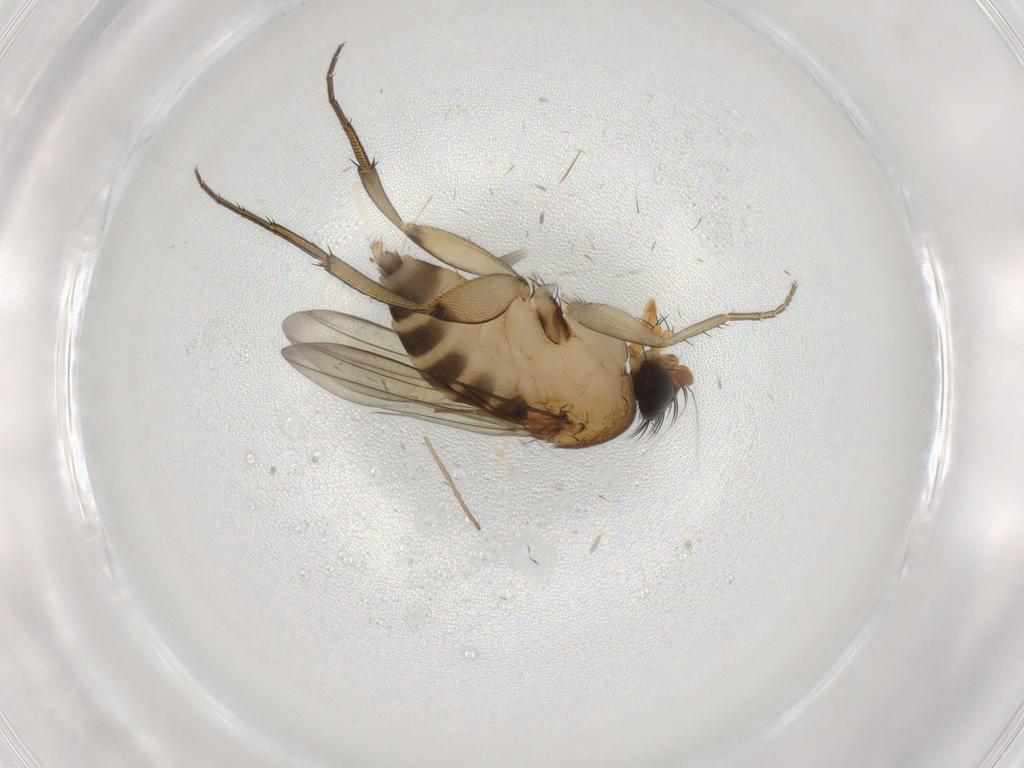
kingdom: Animalia
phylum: Arthropoda
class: Insecta
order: Diptera
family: Phoridae
